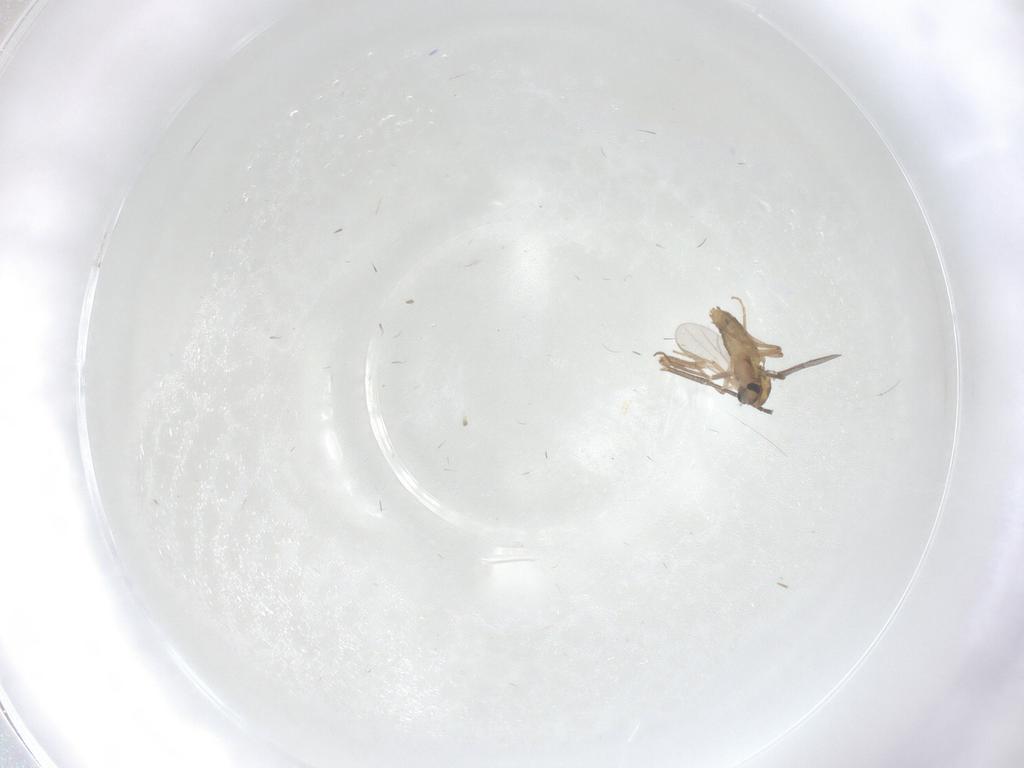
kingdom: Animalia
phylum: Arthropoda
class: Insecta
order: Diptera
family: Chironomidae
